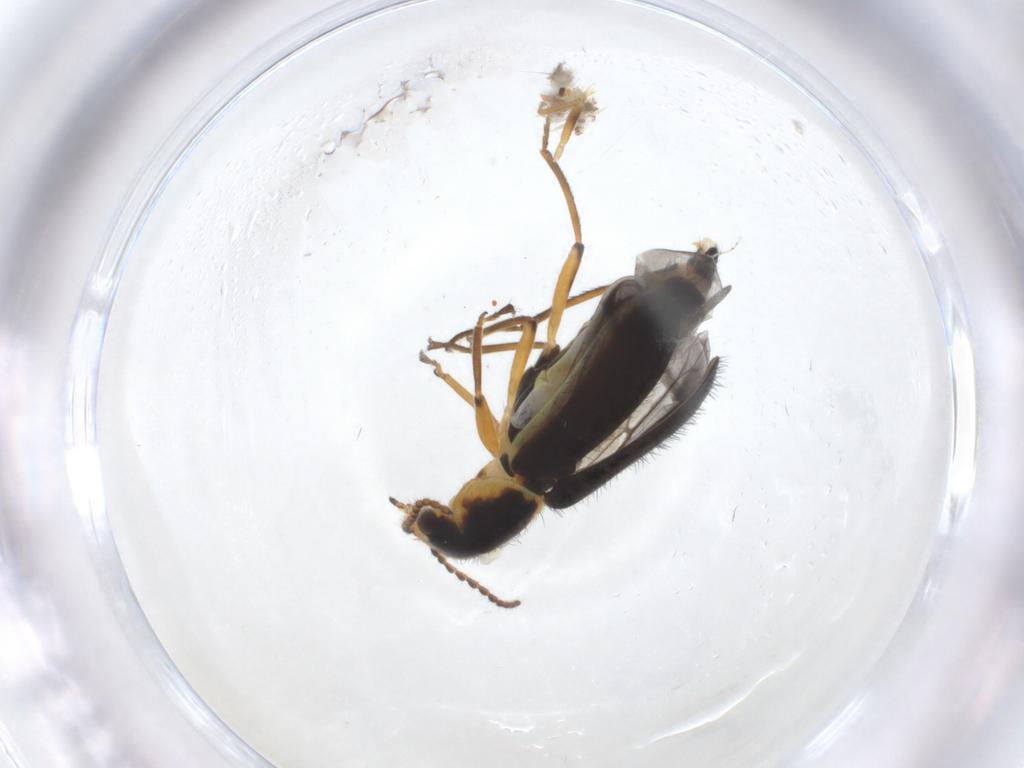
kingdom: Animalia
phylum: Arthropoda
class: Insecta
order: Coleoptera
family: Melyridae
